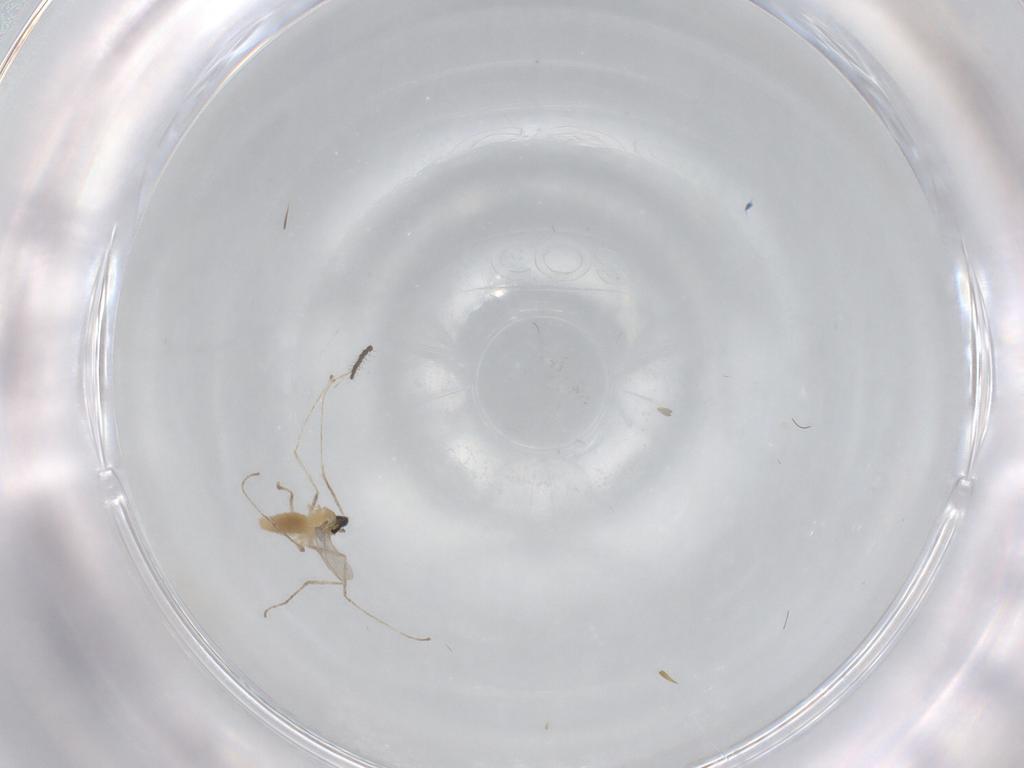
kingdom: Animalia
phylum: Arthropoda
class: Insecta
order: Diptera
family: Cecidomyiidae
